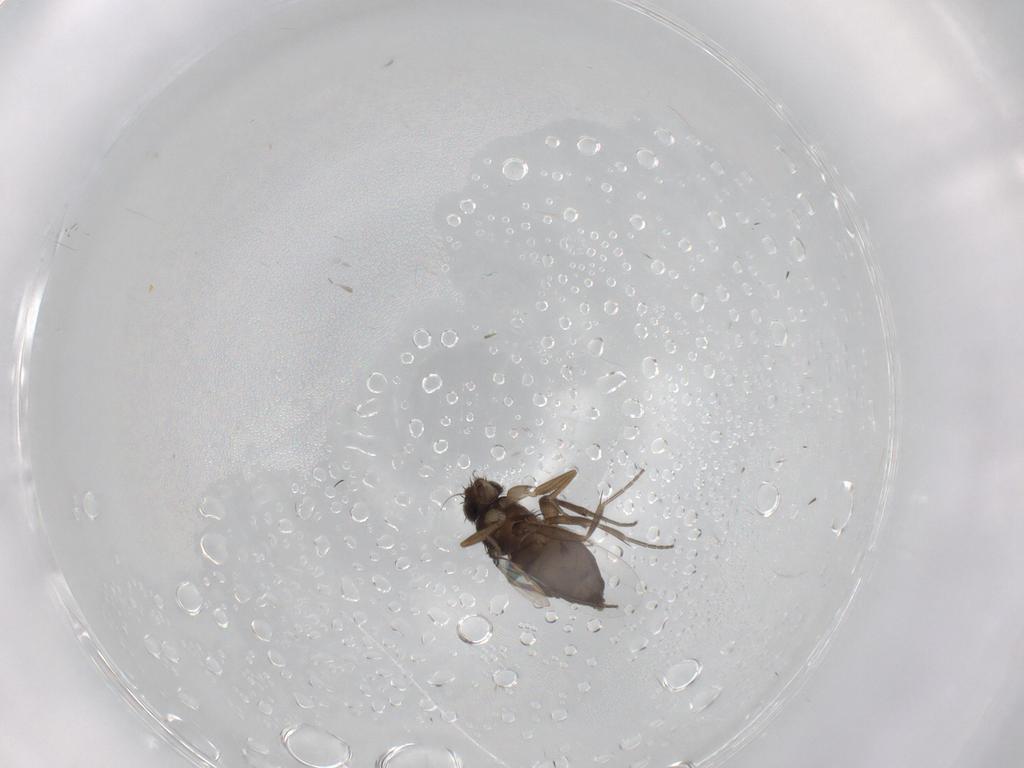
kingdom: Animalia
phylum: Arthropoda
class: Insecta
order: Diptera
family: Phoridae
